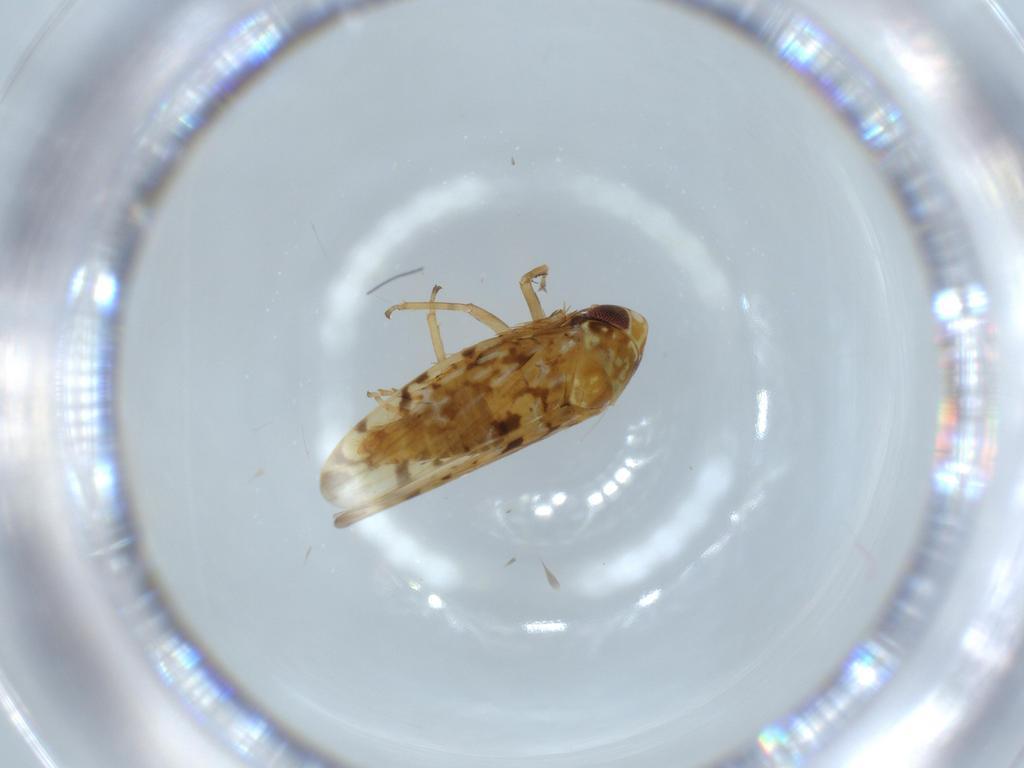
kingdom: Animalia
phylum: Arthropoda
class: Insecta
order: Hemiptera
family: Cicadellidae
